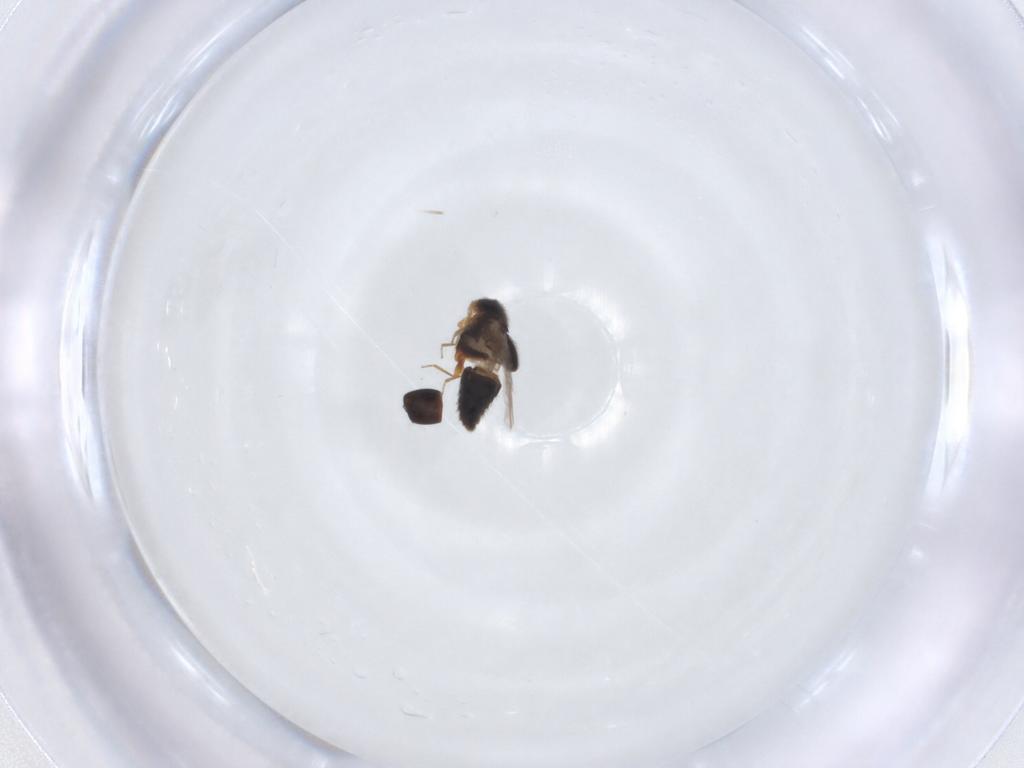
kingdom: Animalia
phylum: Arthropoda
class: Insecta
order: Coleoptera
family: Staphylinidae
